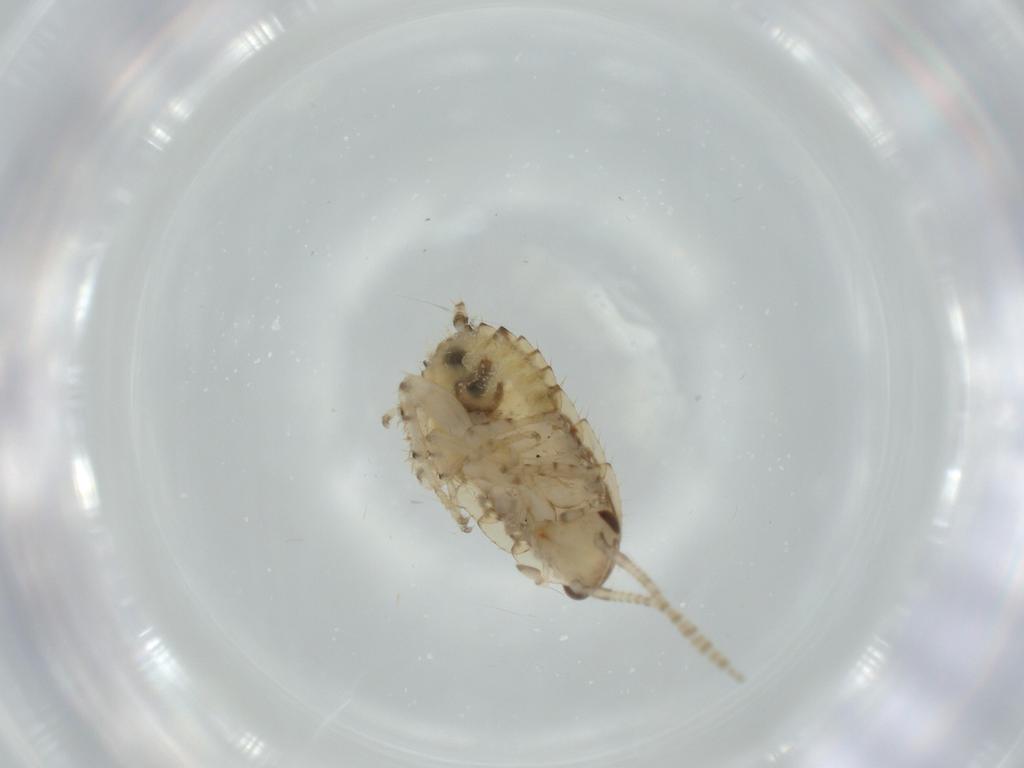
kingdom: Animalia
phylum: Arthropoda
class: Insecta
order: Blattodea
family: Ectobiidae
